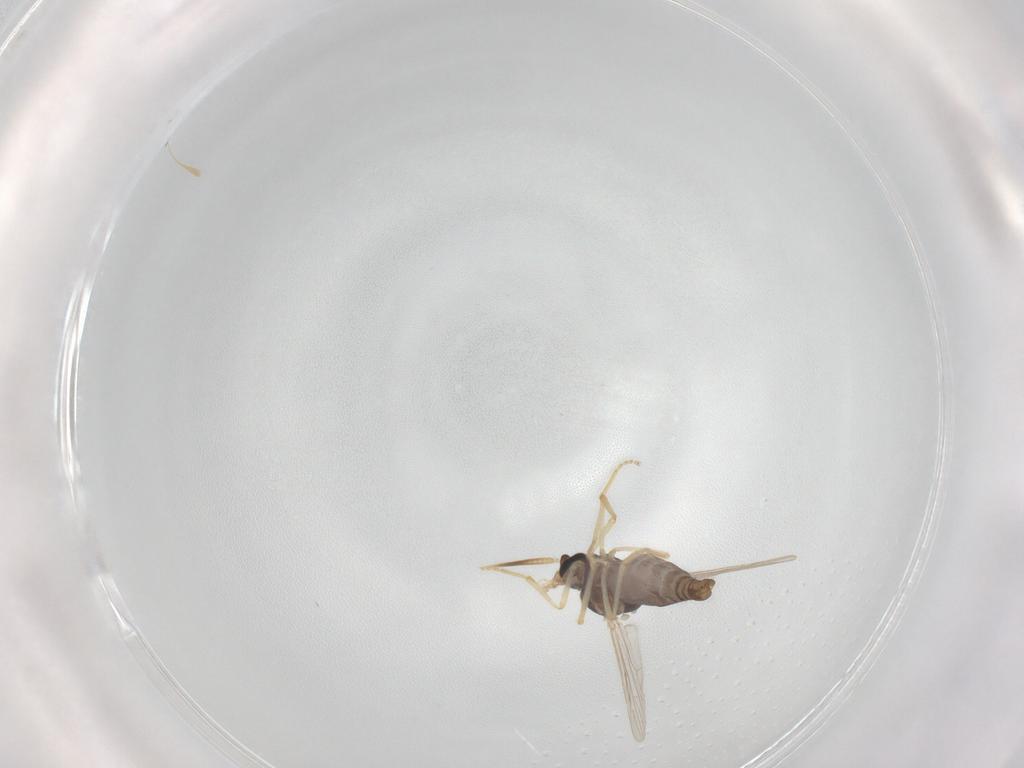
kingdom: Animalia
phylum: Arthropoda
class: Insecta
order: Diptera
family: Ceratopogonidae
